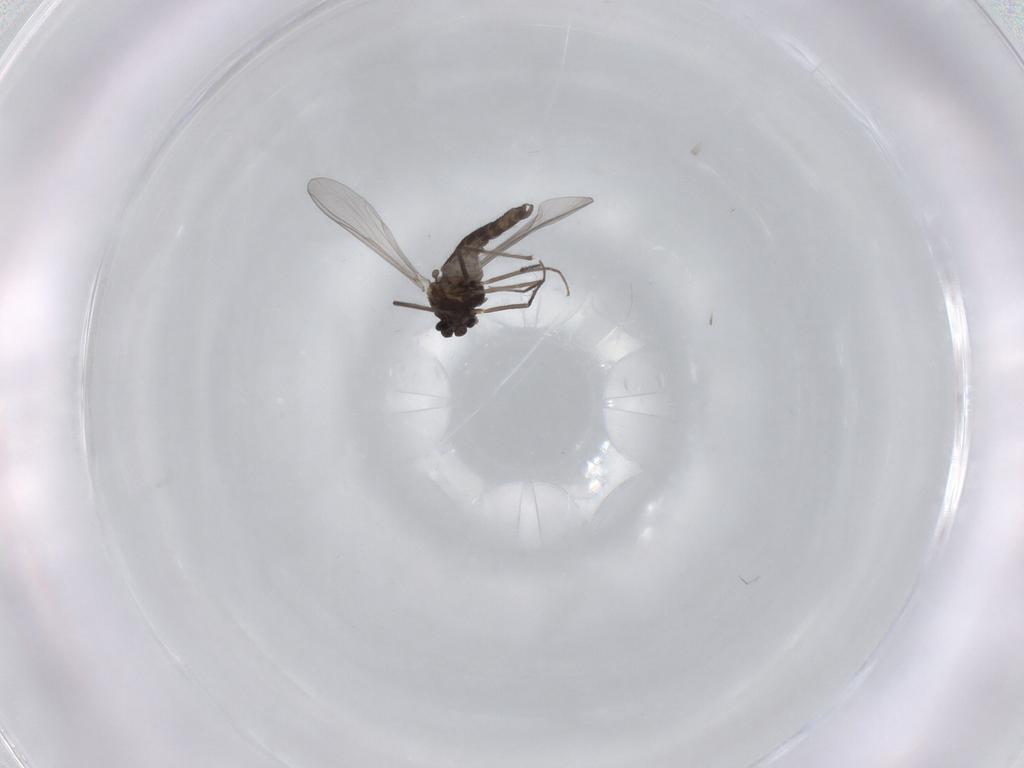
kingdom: Animalia
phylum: Arthropoda
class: Insecta
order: Diptera
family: Chironomidae
